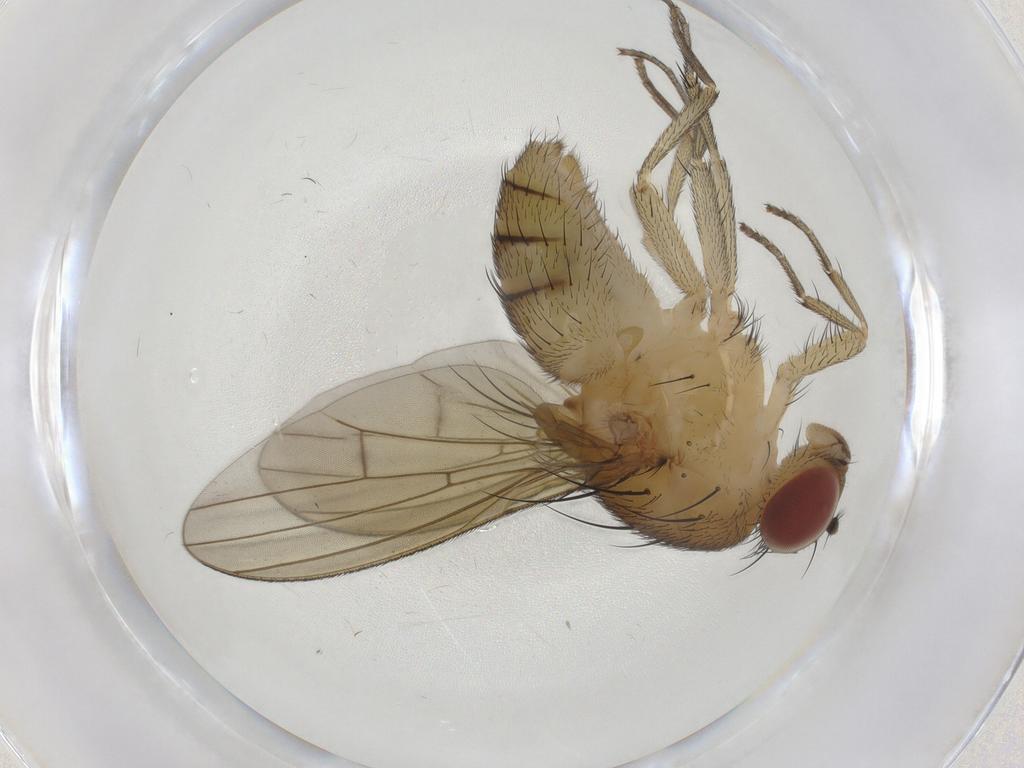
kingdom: Animalia
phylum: Arthropoda
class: Insecta
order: Diptera
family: Lauxaniidae
